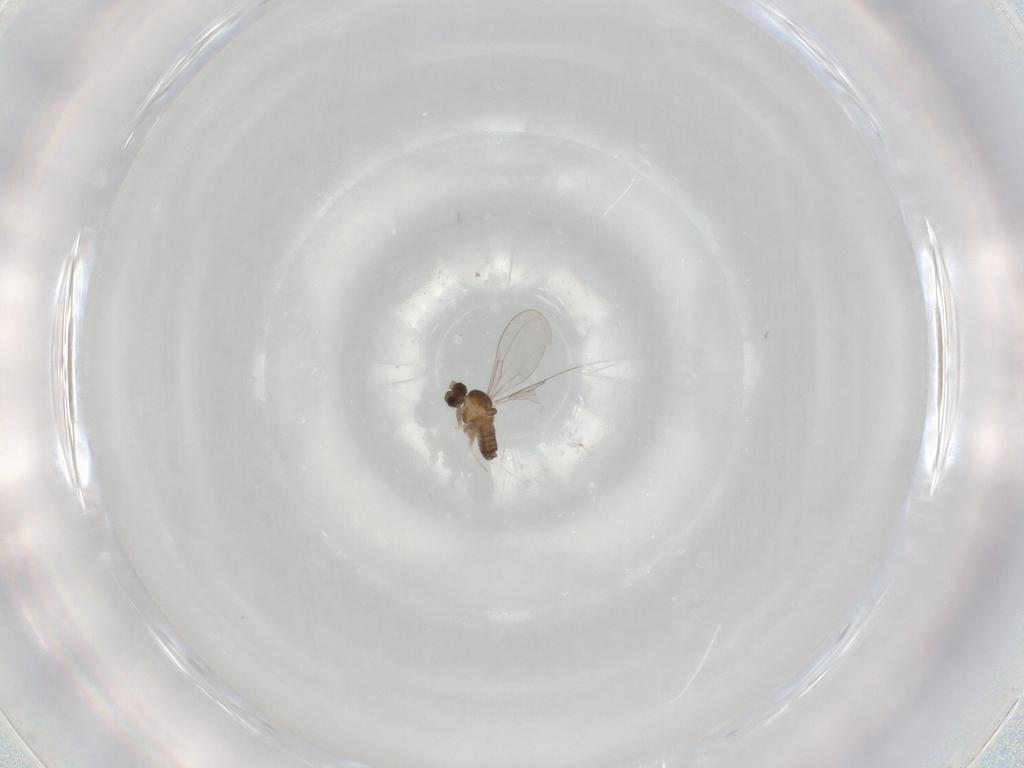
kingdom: Animalia
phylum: Arthropoda
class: Insecta
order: Diptera
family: Cecidomyiidae
